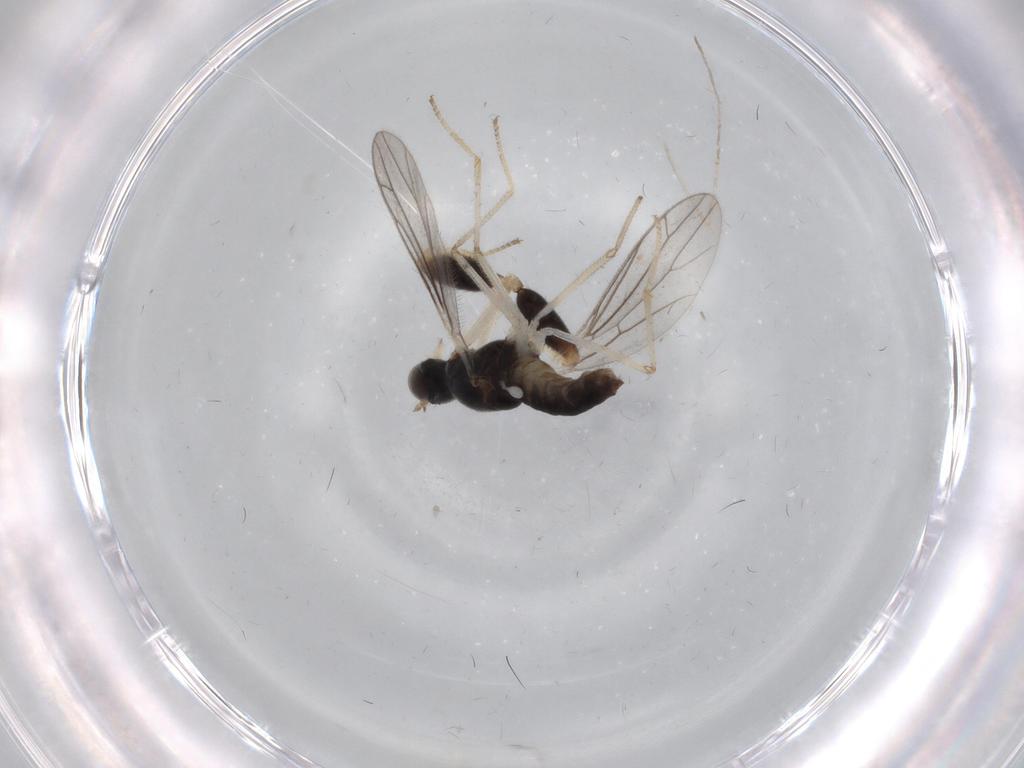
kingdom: Animalia
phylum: Arthropoda
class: Insecta
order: Diptera
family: Empididae
